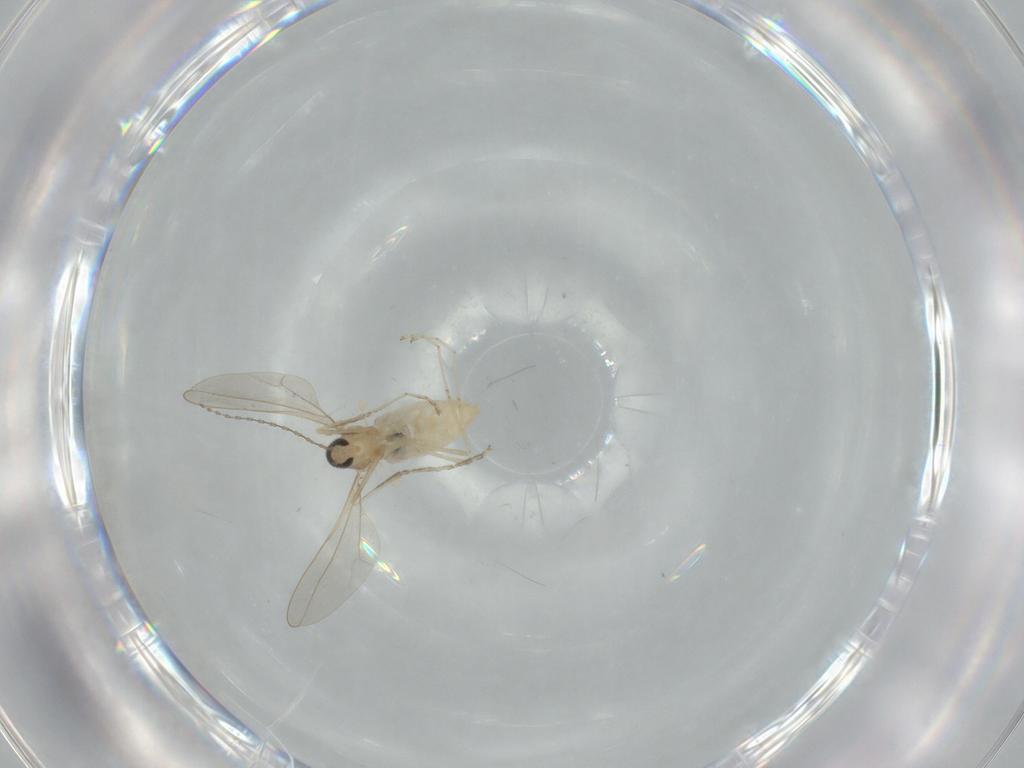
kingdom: Animalia
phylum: Arthropoda
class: Insecta
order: Diptera
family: Cecidomyiidae
